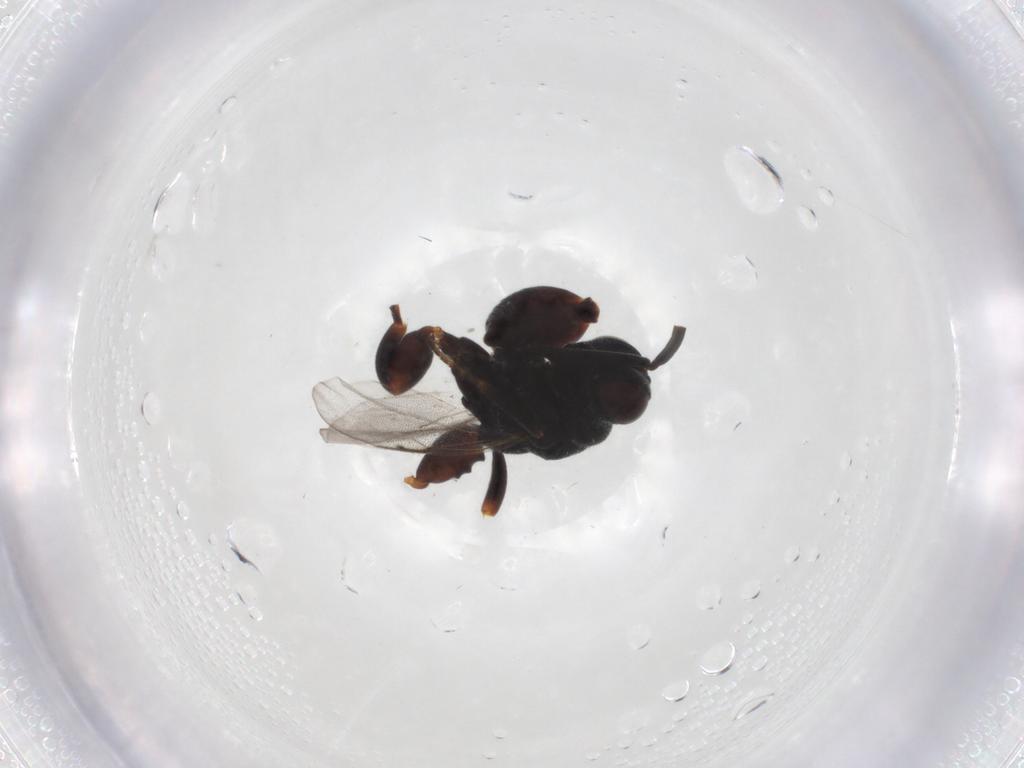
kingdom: Animalia
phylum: Arthropoda
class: Insecta
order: Hymenoptera
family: Chalcididae
